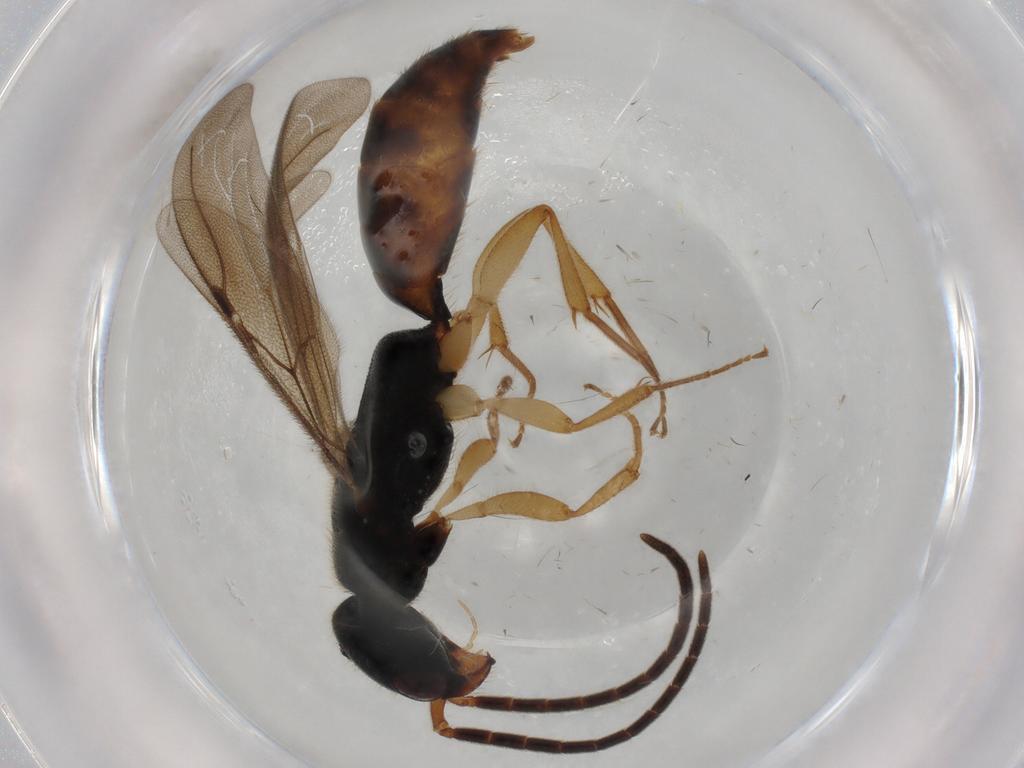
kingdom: Animalia
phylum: Arthropoda
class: Insecta
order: Hymenoptera
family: Bethylidae
